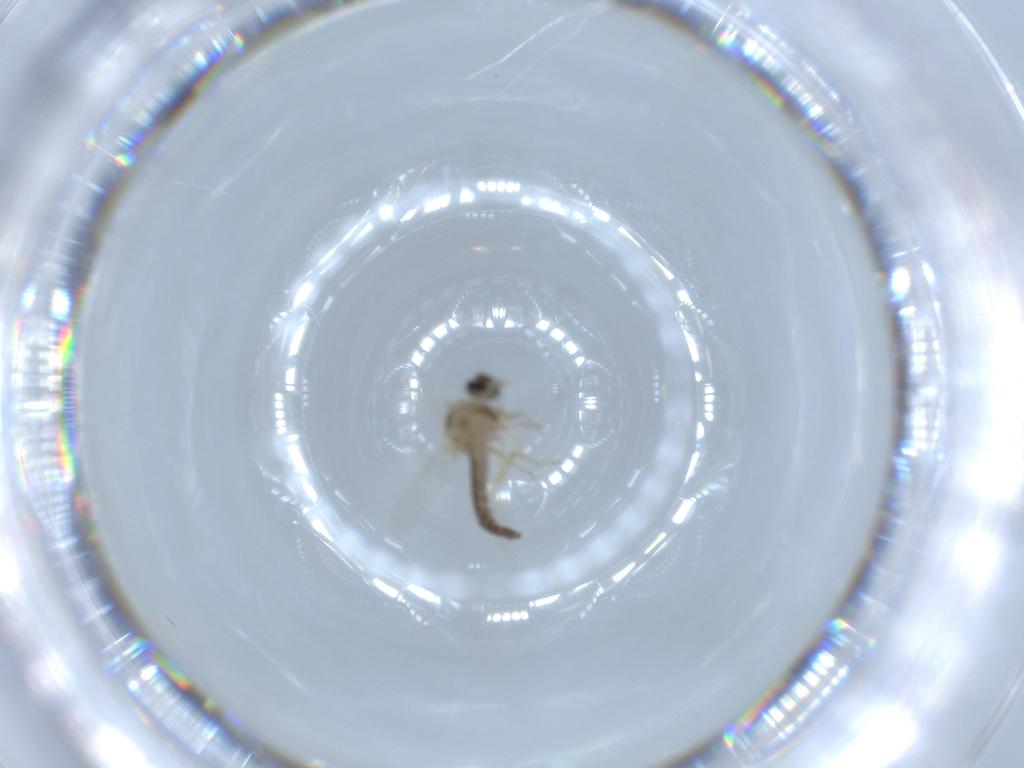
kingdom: Animalia
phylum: Arthropoda
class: Insecta
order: Diptera
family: Ceratopogonidae
